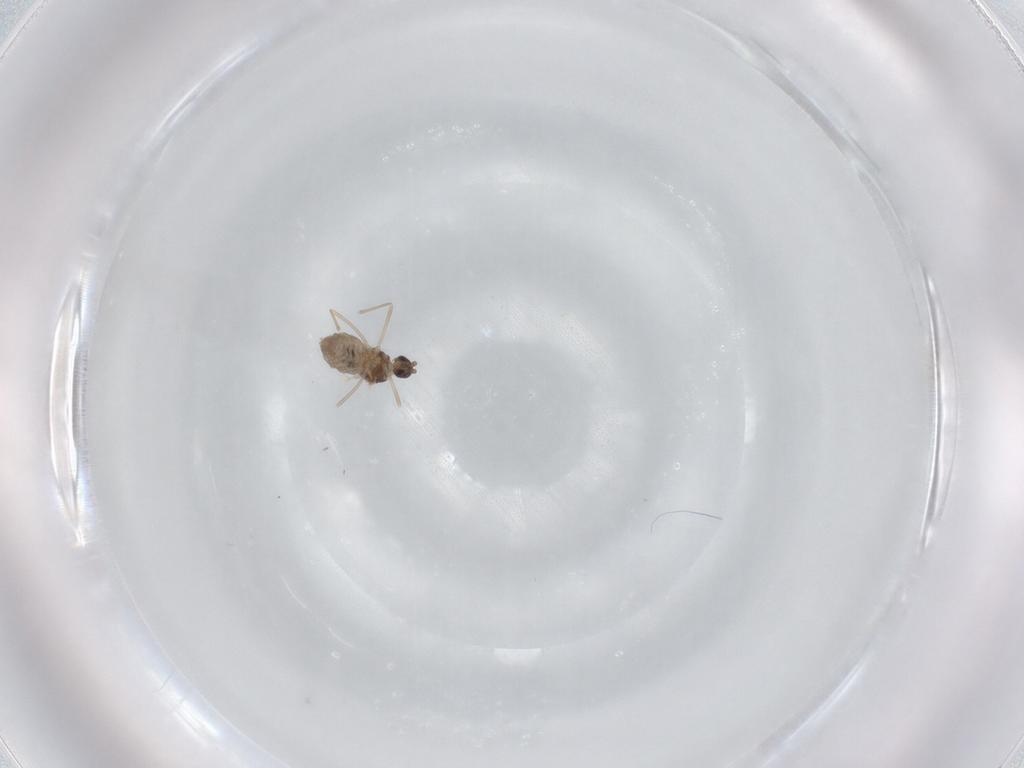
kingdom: Animalia
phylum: Arthropoda
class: Insecta
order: Diptera
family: Cecidomyiidae
